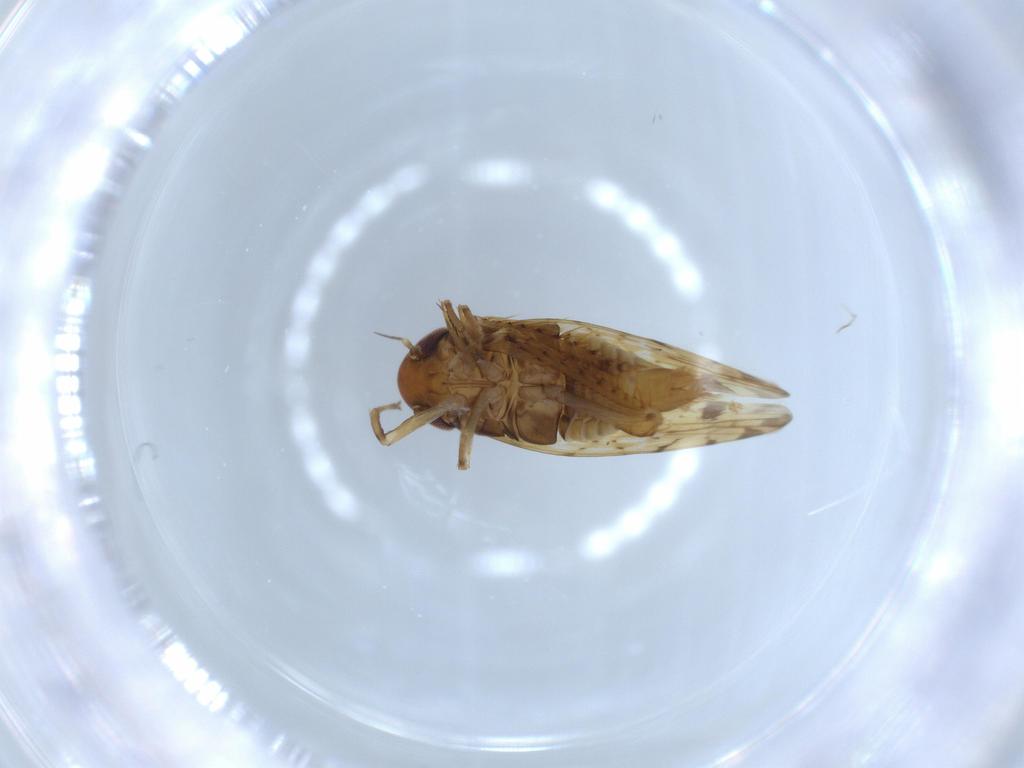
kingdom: Animalia
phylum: Arthropoda
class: Insecta
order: Hemiptera
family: Cicadellidae
